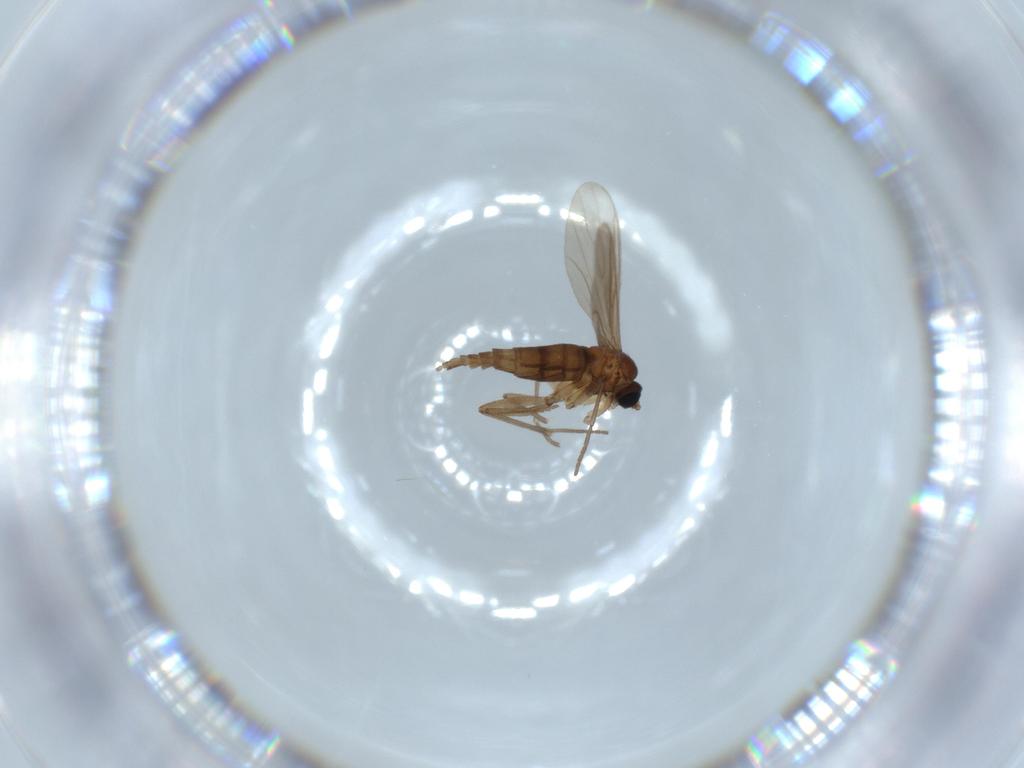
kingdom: Animalia
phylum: Arthropoda
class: Insecta
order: Diptera
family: Sciaridae
